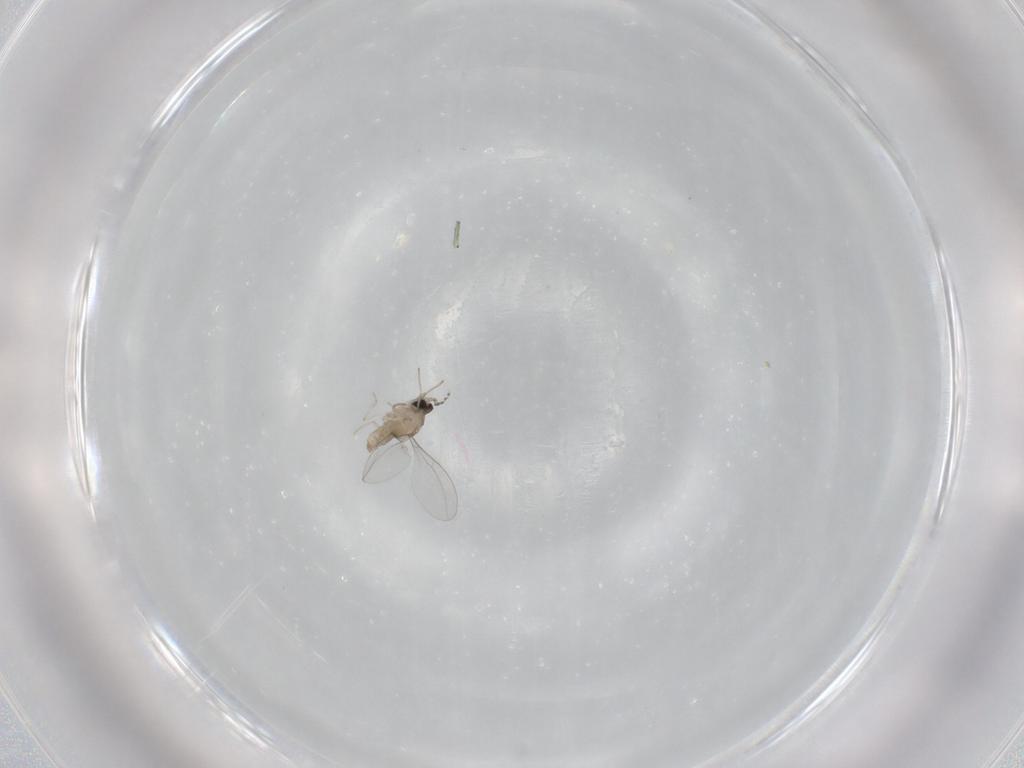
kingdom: Animalia
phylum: Arthropoda
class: Insecta
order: Diptera
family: Cecidomyiidae
